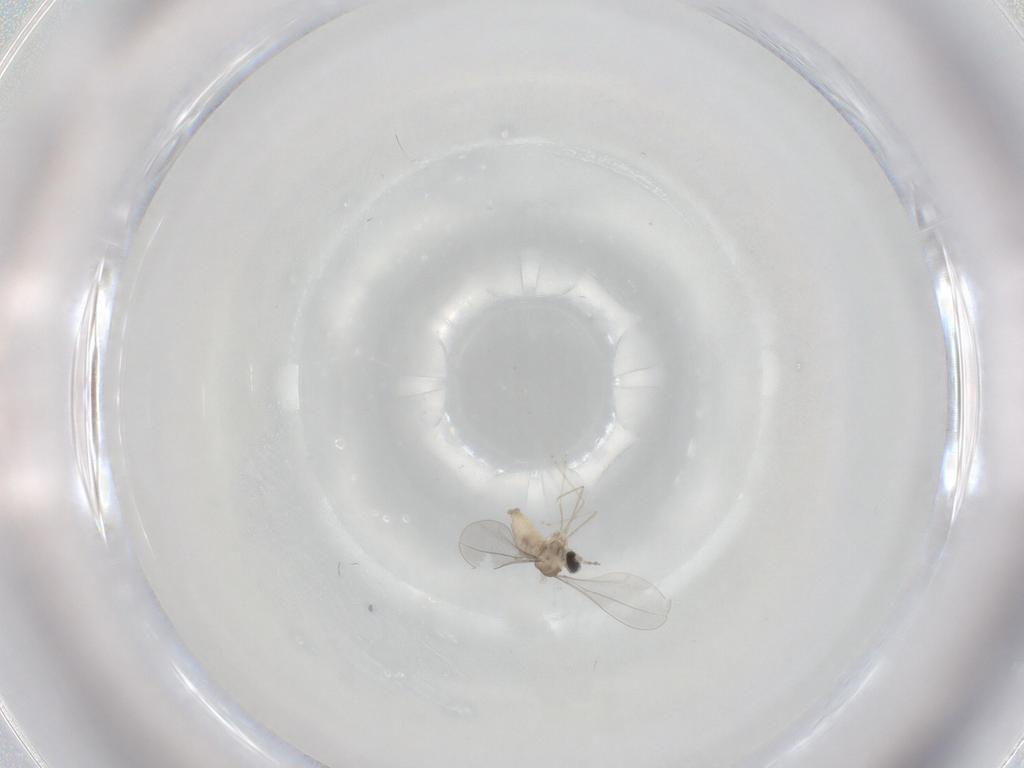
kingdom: Animalia
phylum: Arthropoda
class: Insecta
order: Diptera
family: Cecidomyiidae
